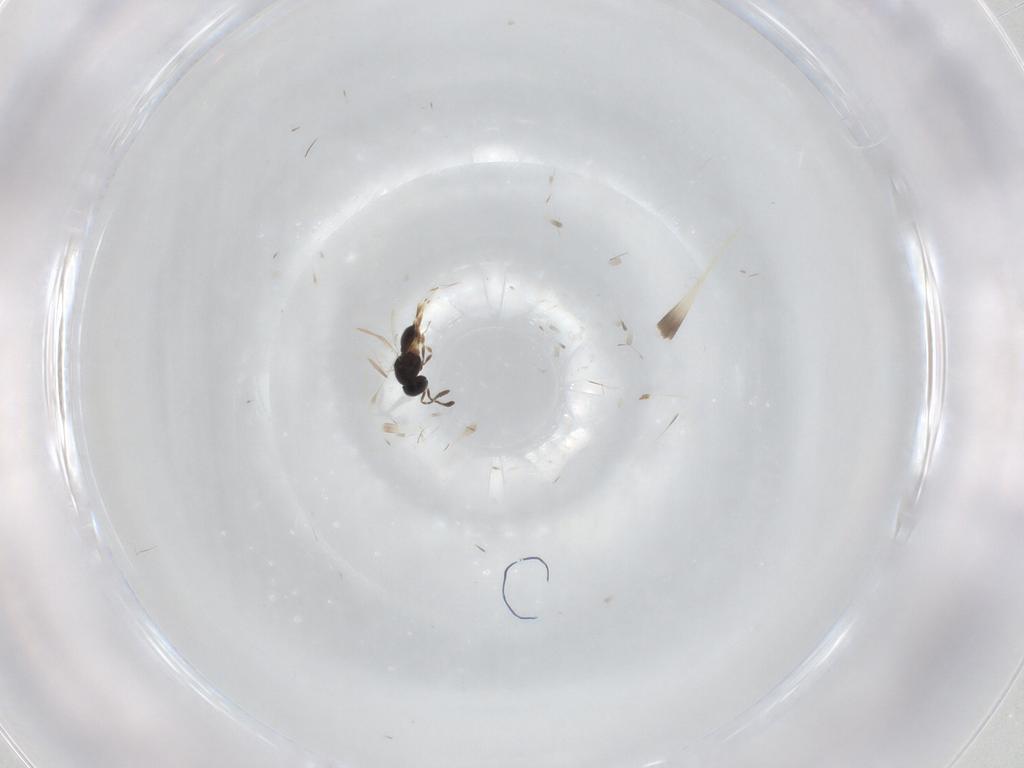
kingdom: Animalia
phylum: Arthropoda
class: Insecta
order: Hymenoptera
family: Scelionidae
